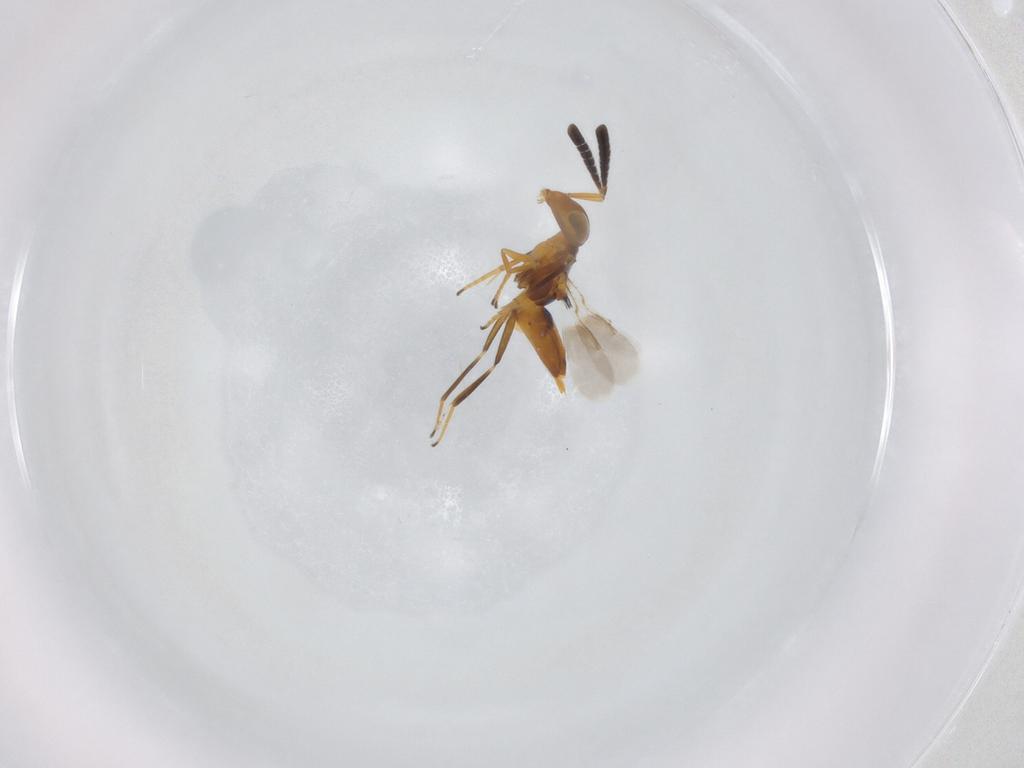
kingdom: Animalia
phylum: Arthropoda
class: Insecta
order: Hymenoptera
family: Encyrtidae
